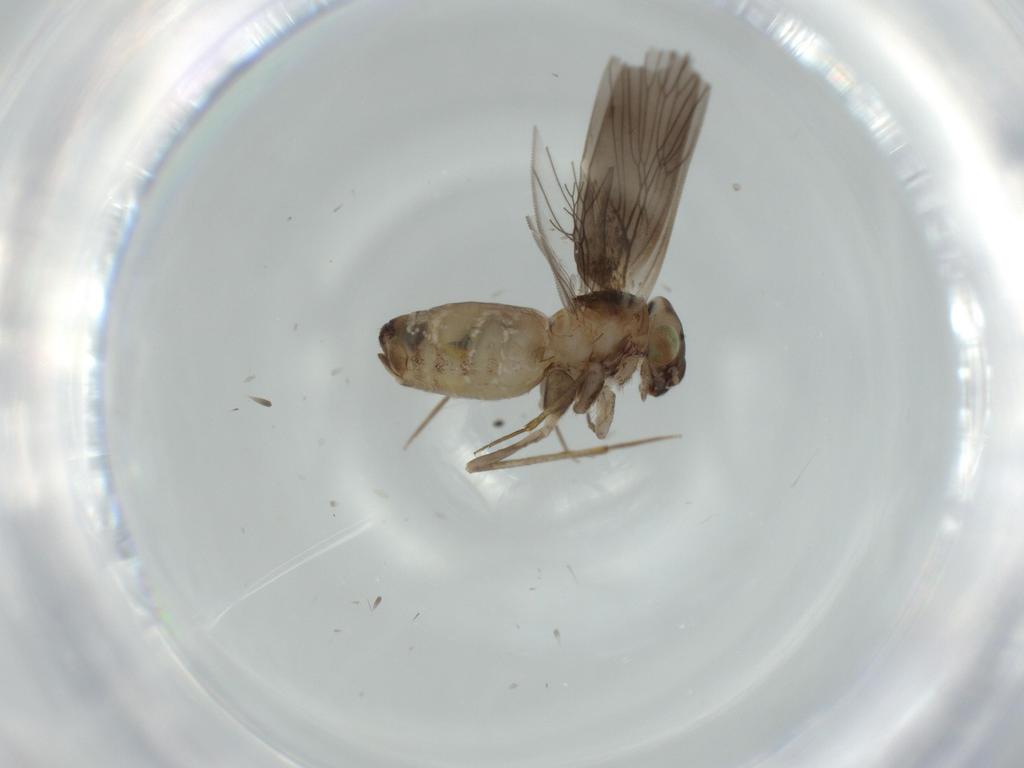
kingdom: Animalia
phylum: Arthropoda
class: Insecta
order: Psocodea
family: Lepidopsocidae
